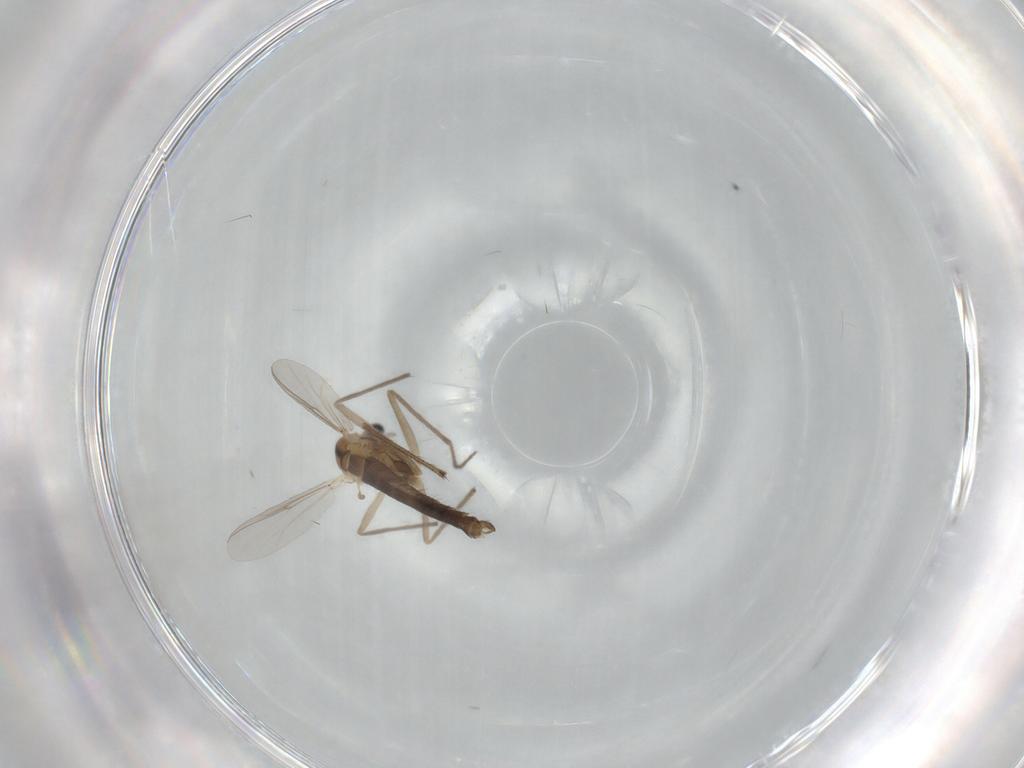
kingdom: Animalia
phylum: Arthropoda
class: Insecta
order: Diptera
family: Chironomidae
